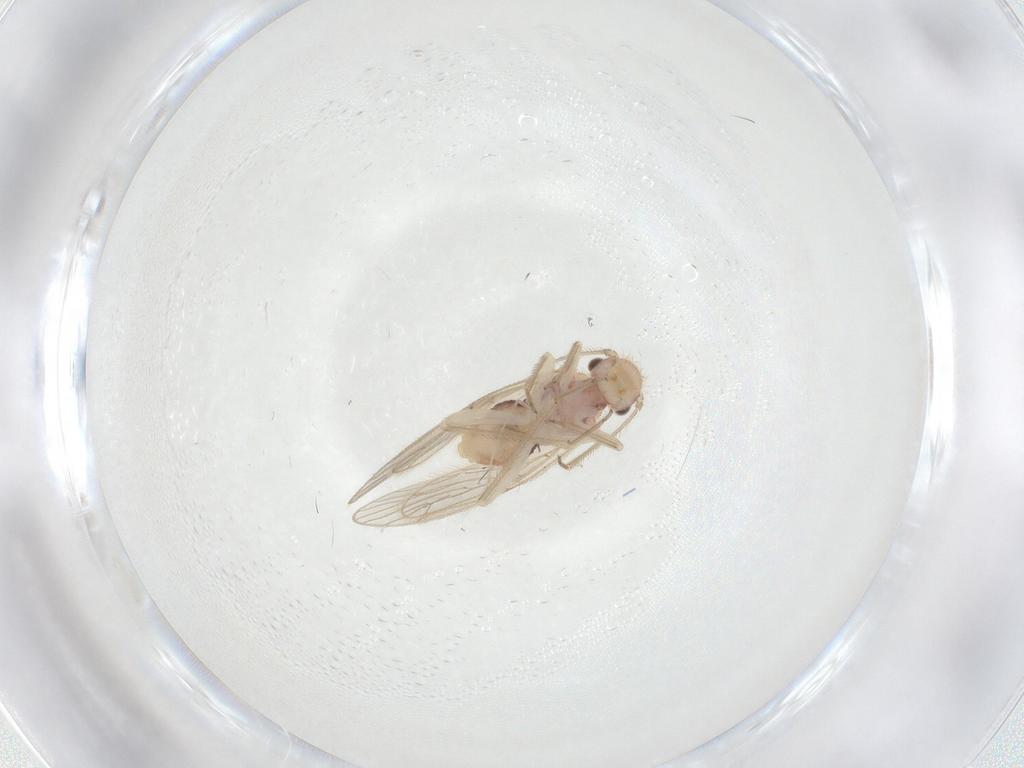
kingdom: Animalia
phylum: Arthropoda
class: Insecta
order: Psocodea
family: Cladiopsocidae
